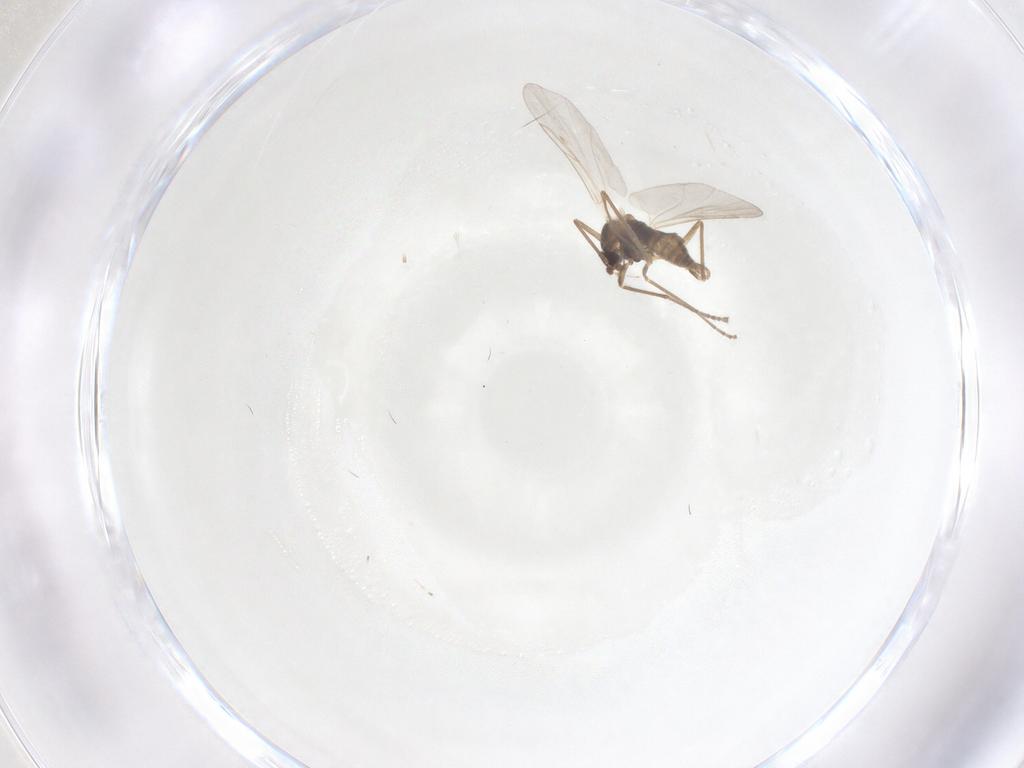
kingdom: Animalia
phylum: Arthropoda
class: Insecta
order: Diptera
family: Cecidomyiidae
